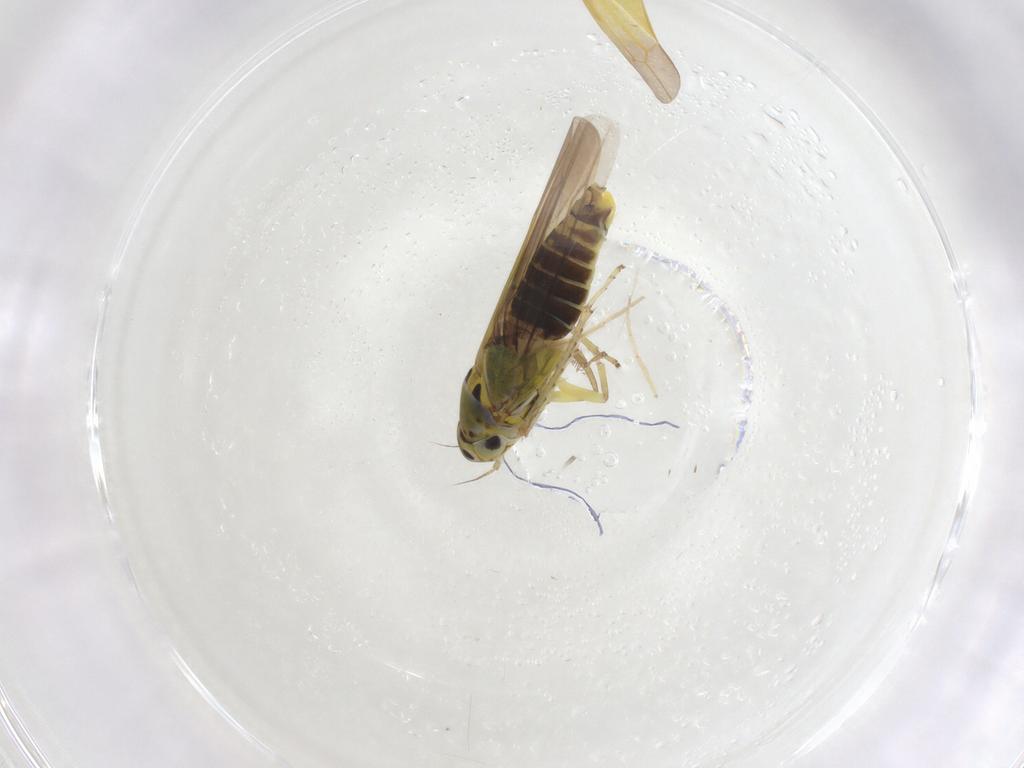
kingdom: Animalia
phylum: Arthropoda
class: Insecta
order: Hemiptera
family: Cicadellidae
